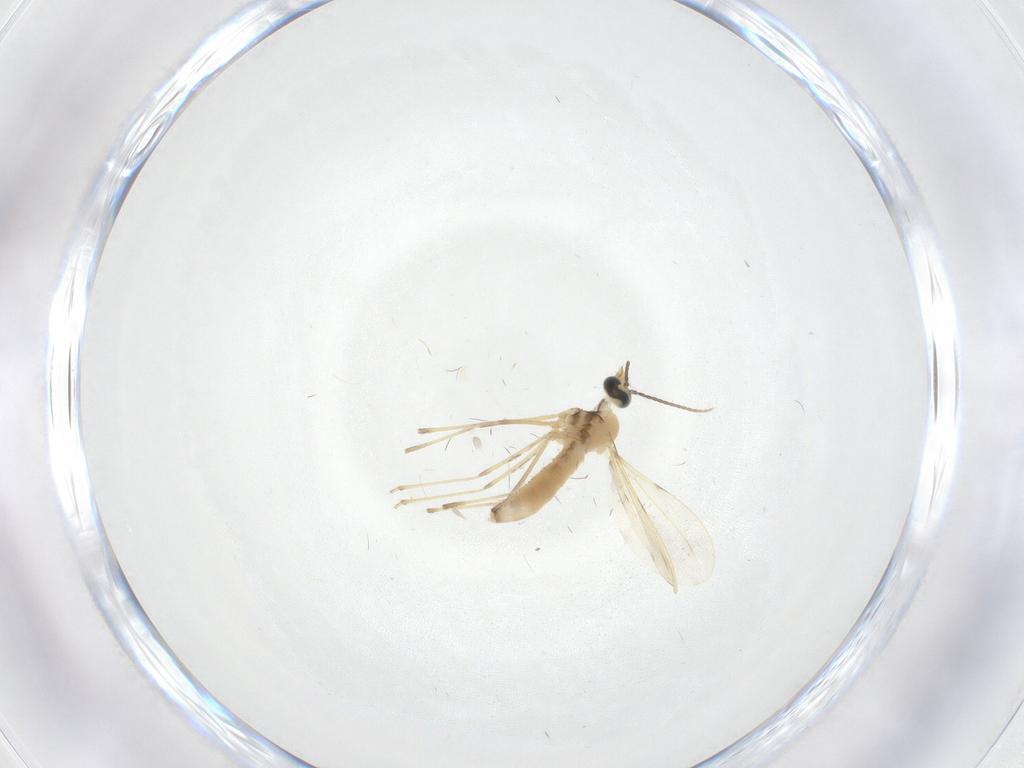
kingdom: Animalia
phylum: Arthropoda
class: Insecta
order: Diptera
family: Cecidomyiidae
